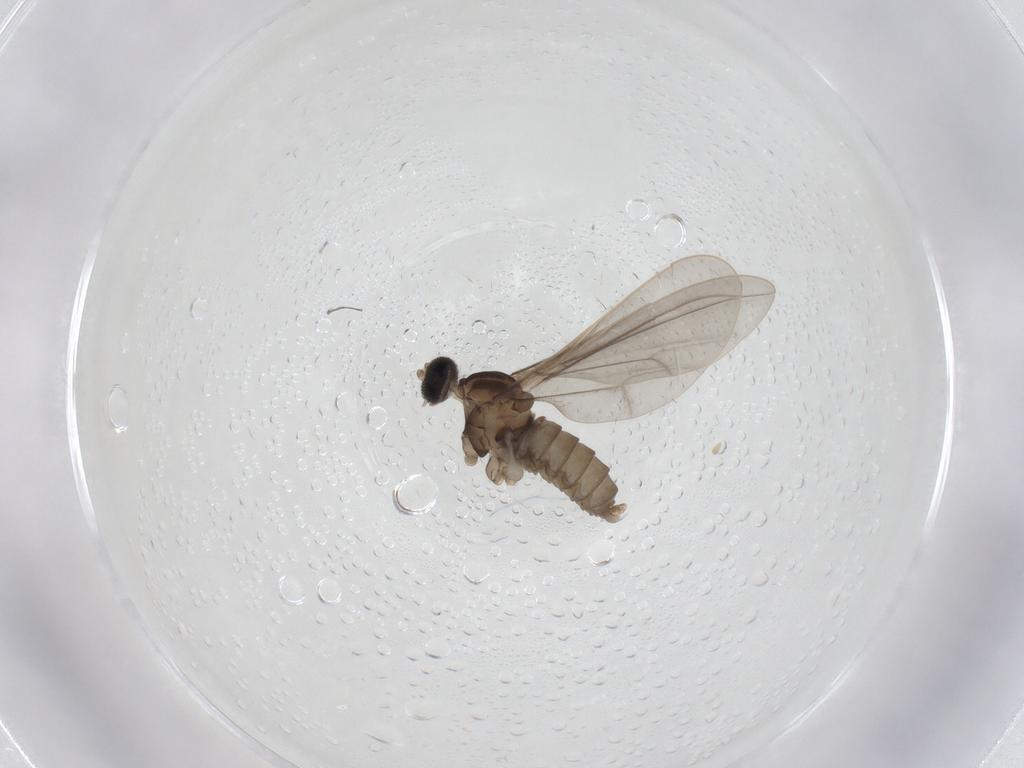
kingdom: Animalia
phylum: Arthropoda
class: Insecta
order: Diptera
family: Cecidomyiidae
